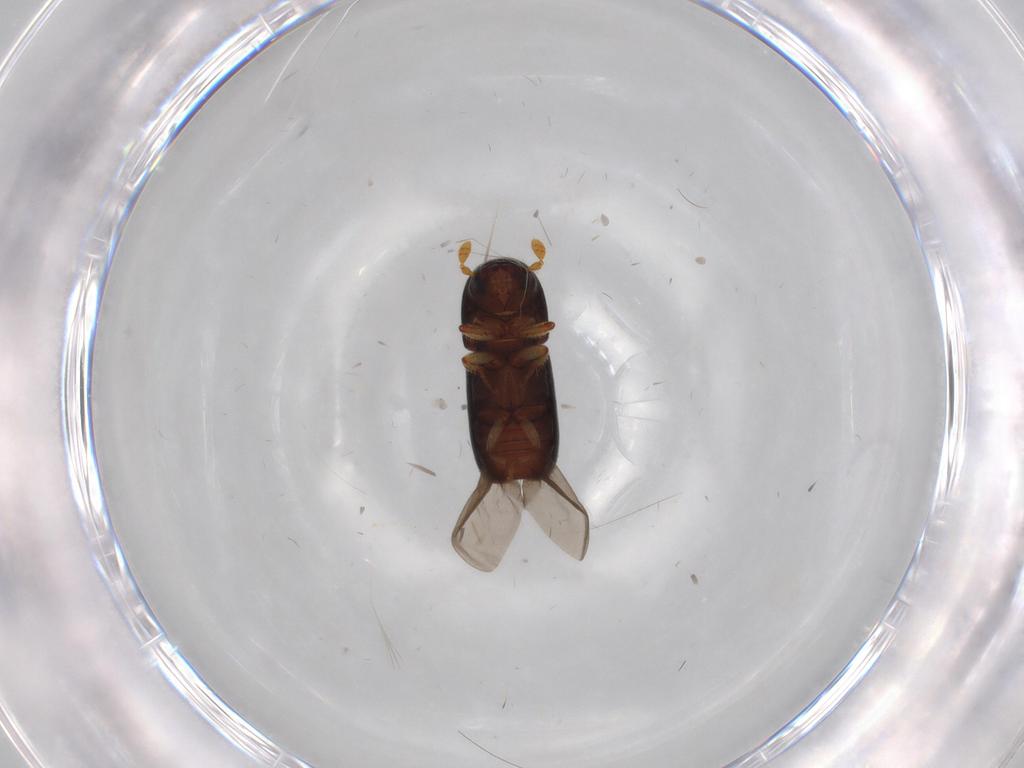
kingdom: Animalia
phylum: Arthropoda
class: Insecta
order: Coleoptera
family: Curculionidae
